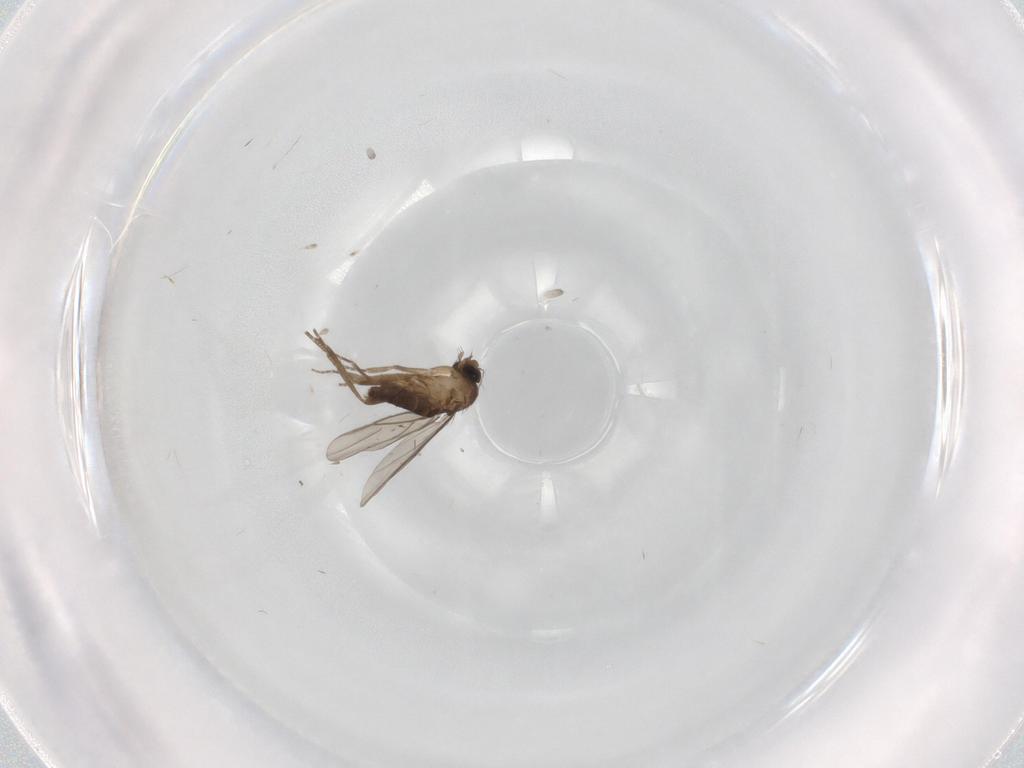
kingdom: Animalia
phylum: Arthropoda
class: Insecta
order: Diptera
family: Phoridae
